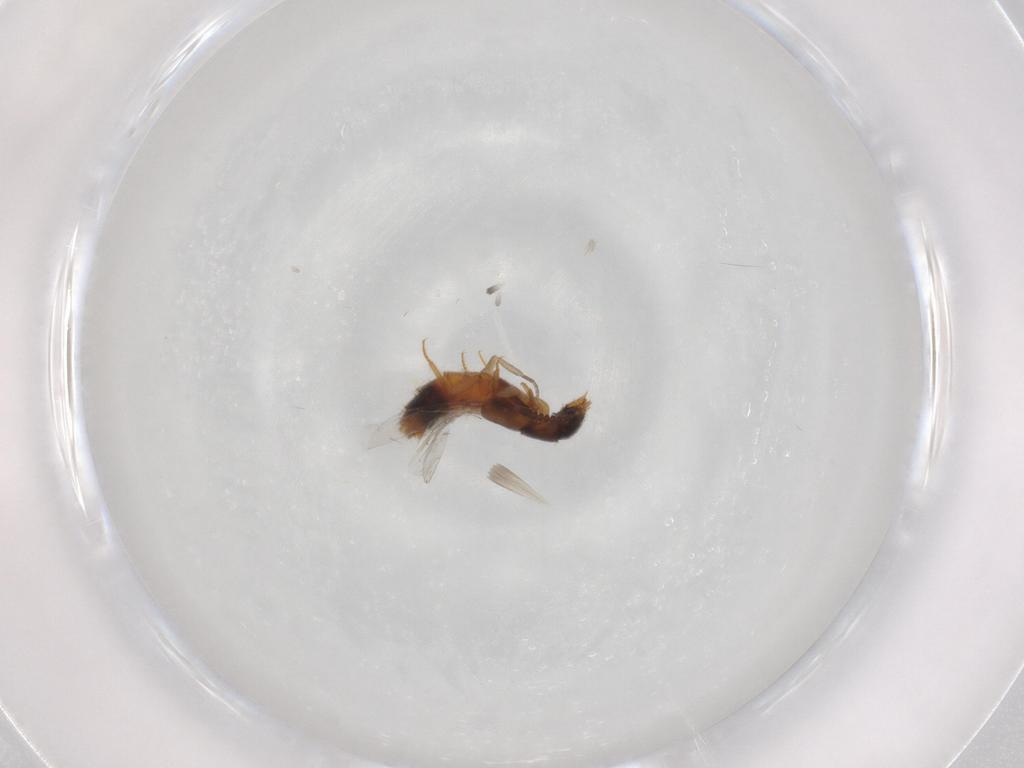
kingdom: Animalia
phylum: Arthropoda
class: Insecta
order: Coleoptera
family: Staphylinidae
